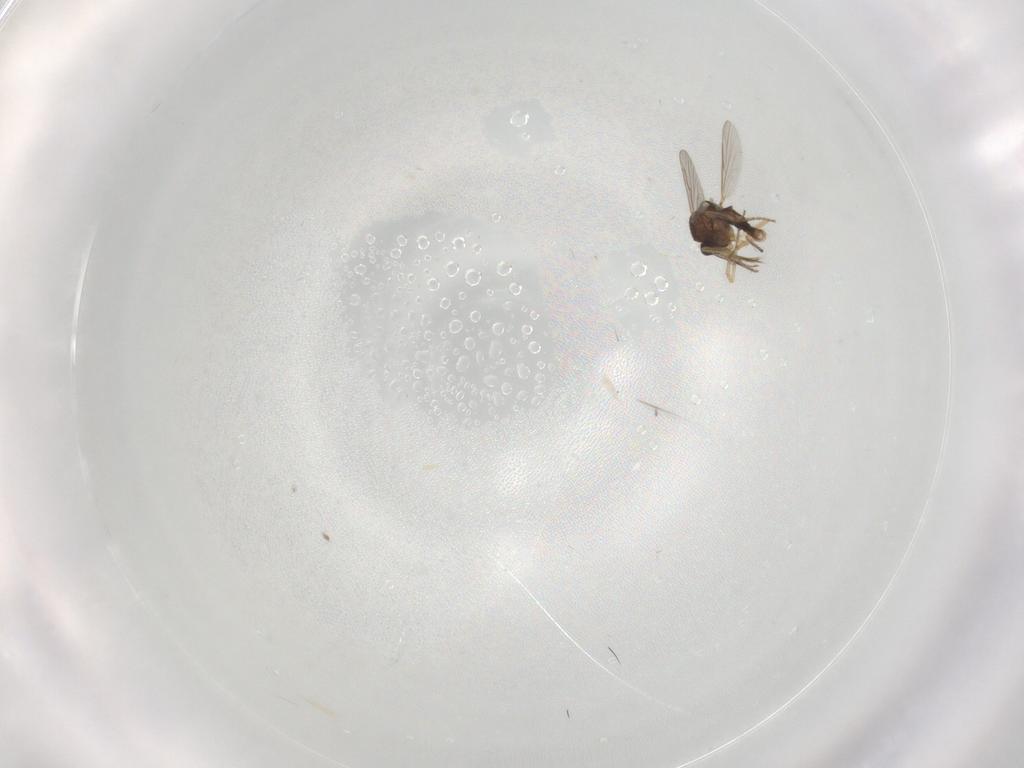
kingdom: Animalia
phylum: Arthropoda
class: Insecta
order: Diptera
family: Ceratopogonidae
